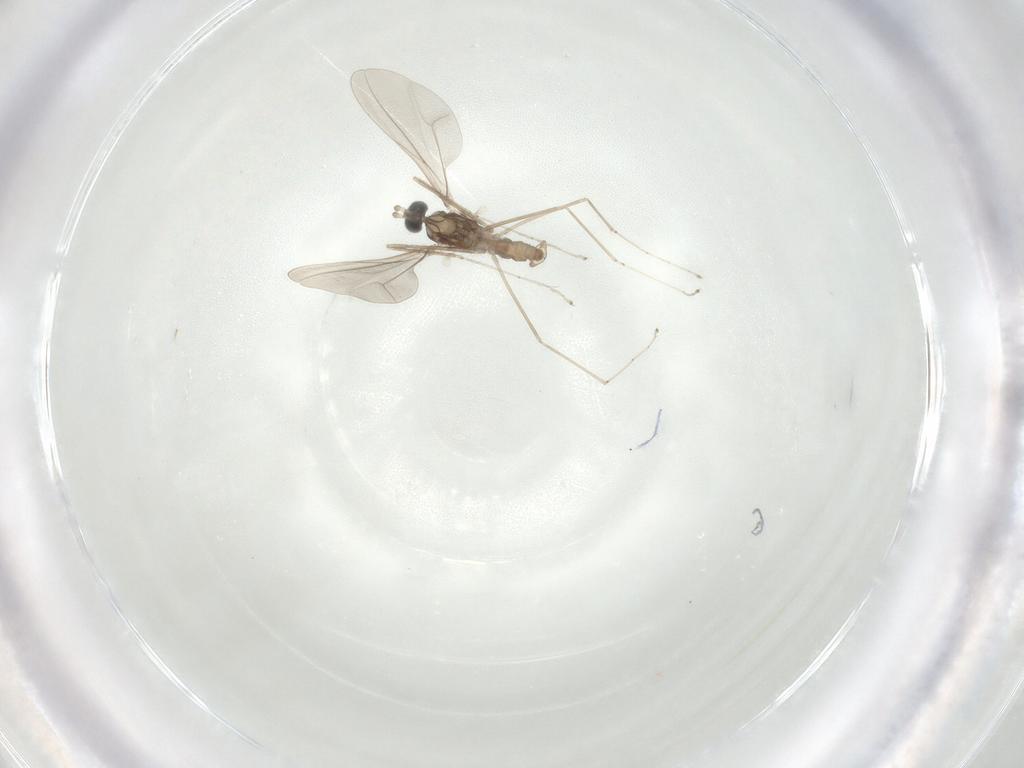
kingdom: Animalia
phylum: Arthropoda
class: Insecta
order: Diptera
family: Cecidomyiidae
